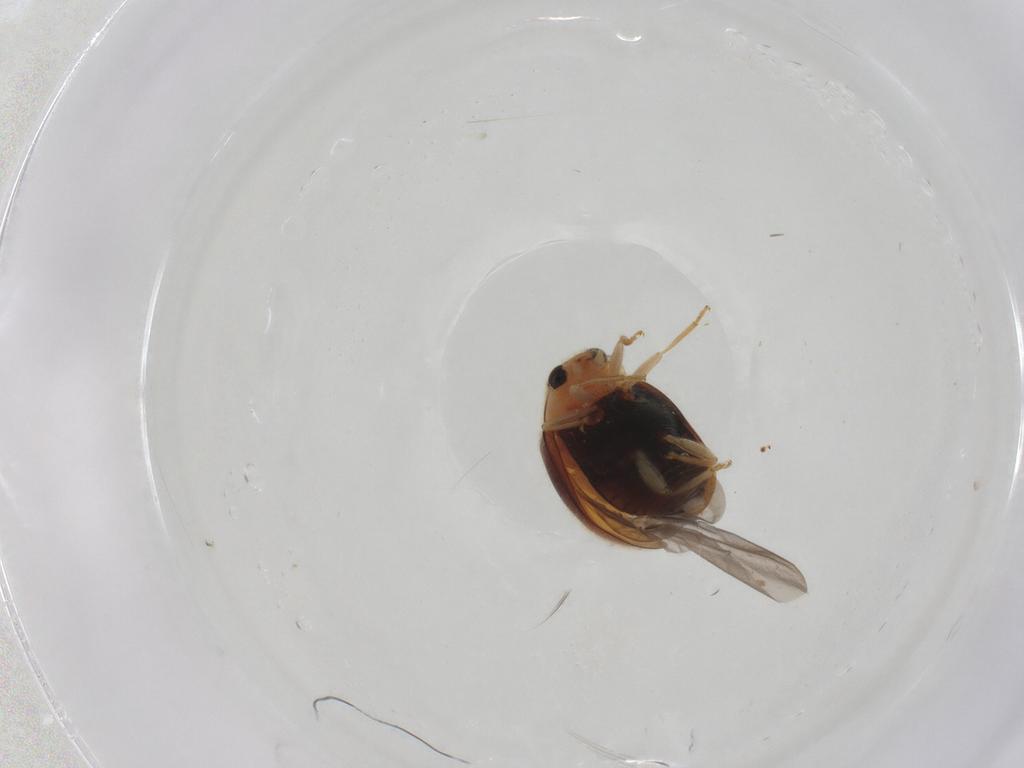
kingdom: Animalia
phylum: Arthropoda
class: Insecta
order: Coleoptera
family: Coccinellidae
